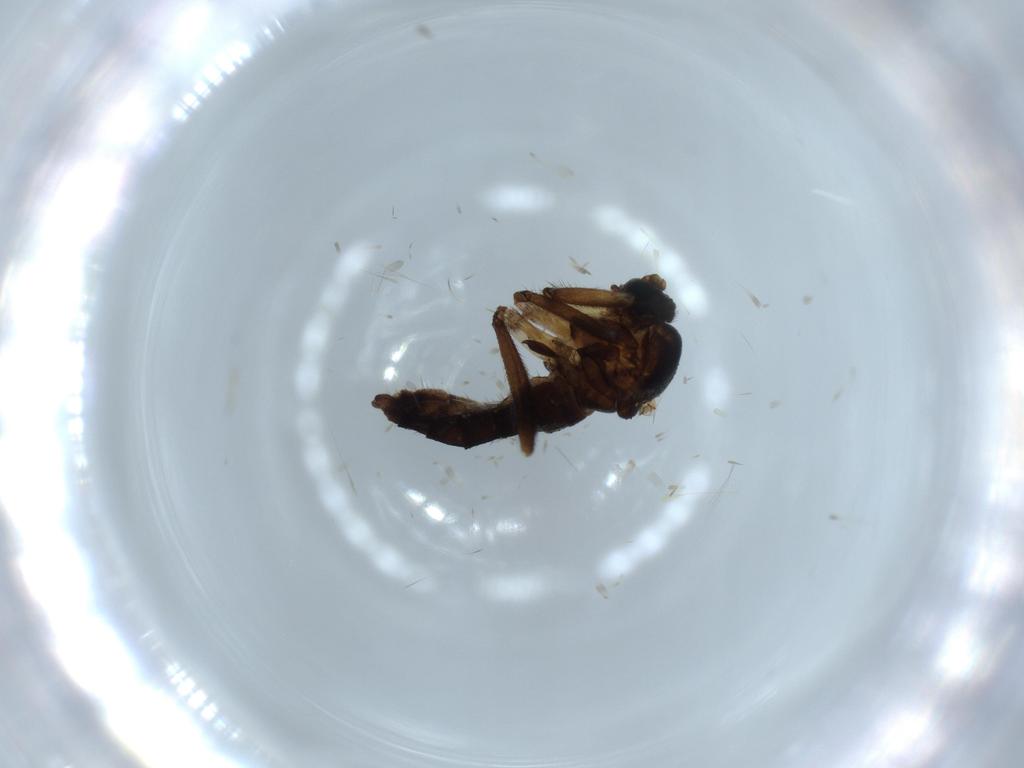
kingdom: Animalia
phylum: Arthropoda
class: Insecta
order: Diptera
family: Sciaridae
